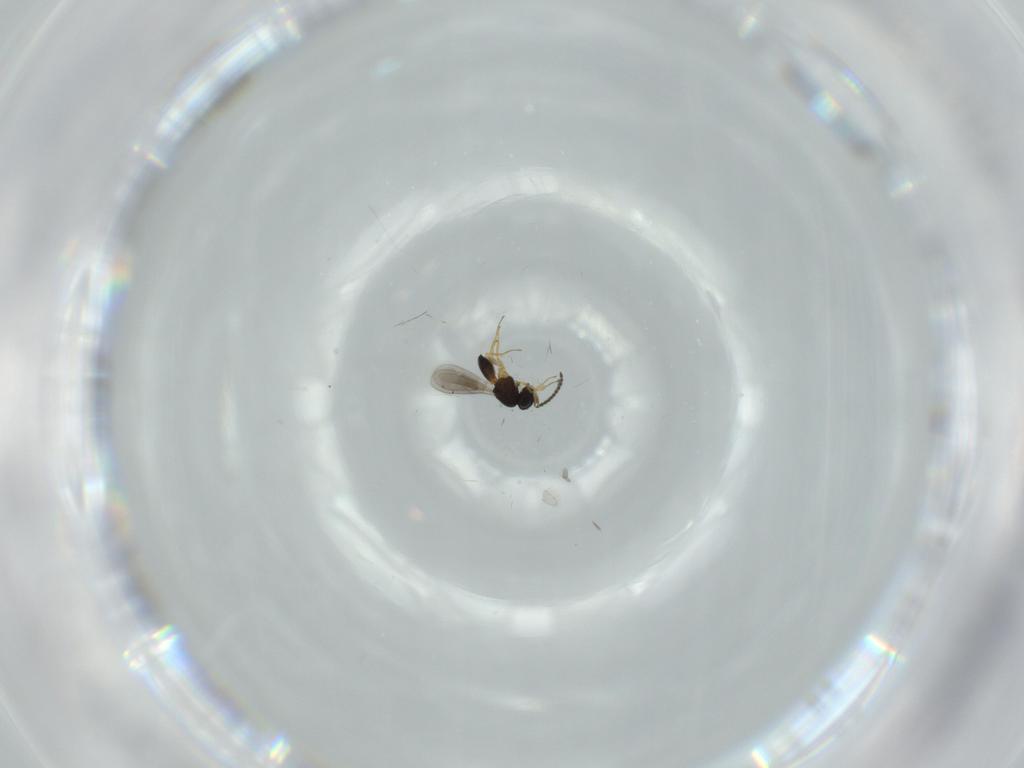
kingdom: Animalia
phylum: Arthropoda
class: Insecta
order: Hymenoptera
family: Scelionidae
